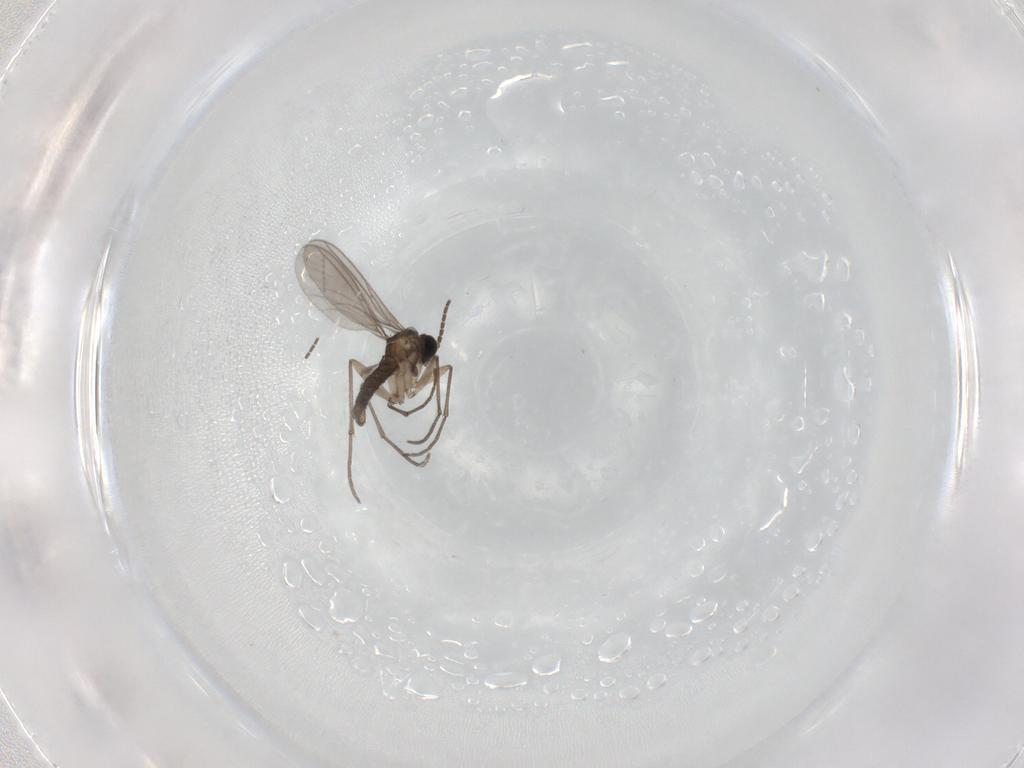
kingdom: Animalia
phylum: Arthropoda
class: Insecta
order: Diptera
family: Sciaridae
